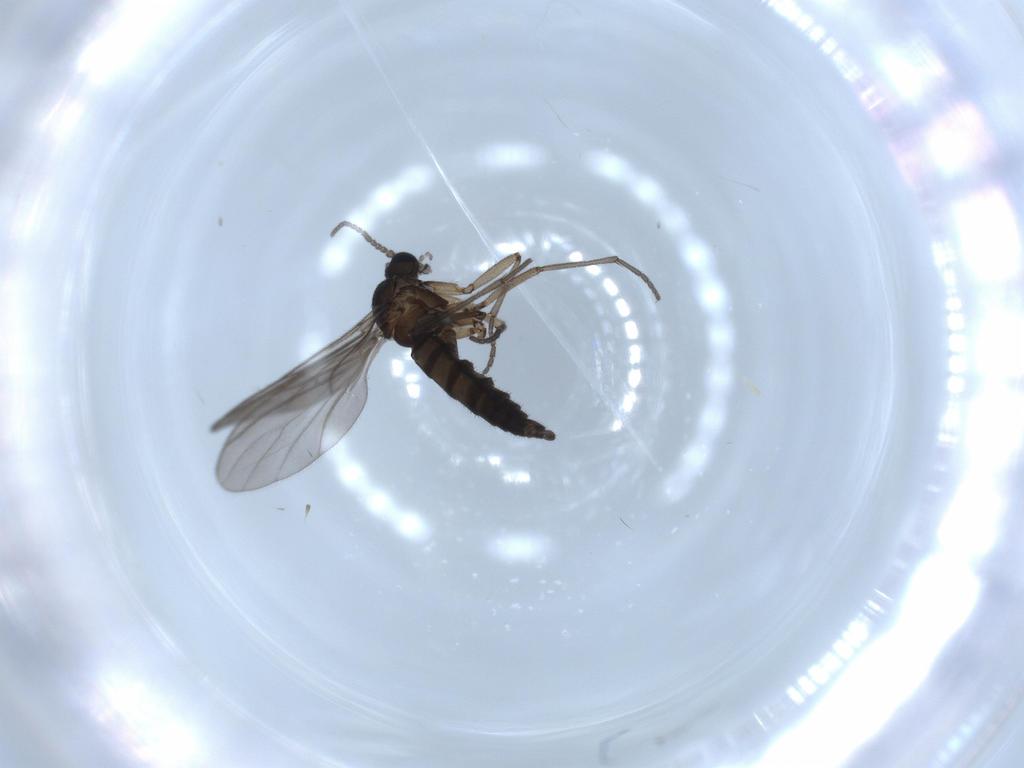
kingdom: Animalia
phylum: Arthropoda
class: Insecta
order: Diptera
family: Sciaridae
